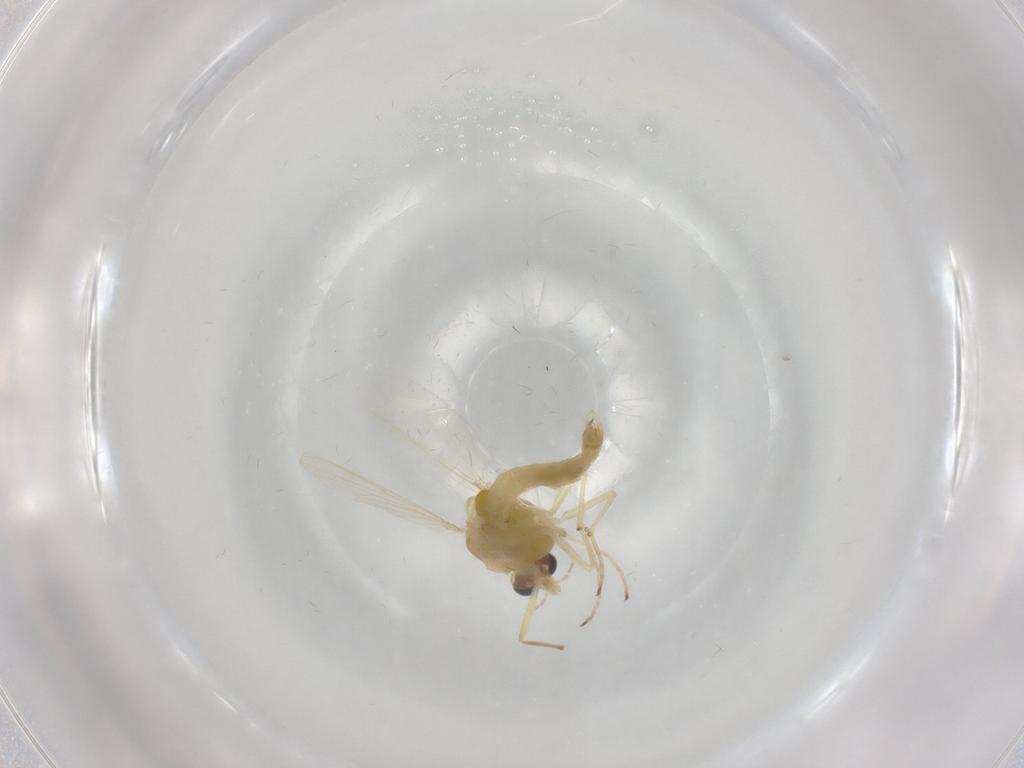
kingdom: Animalia
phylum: Arthropoda
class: Insecta
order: Diptera
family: Chironomidae
